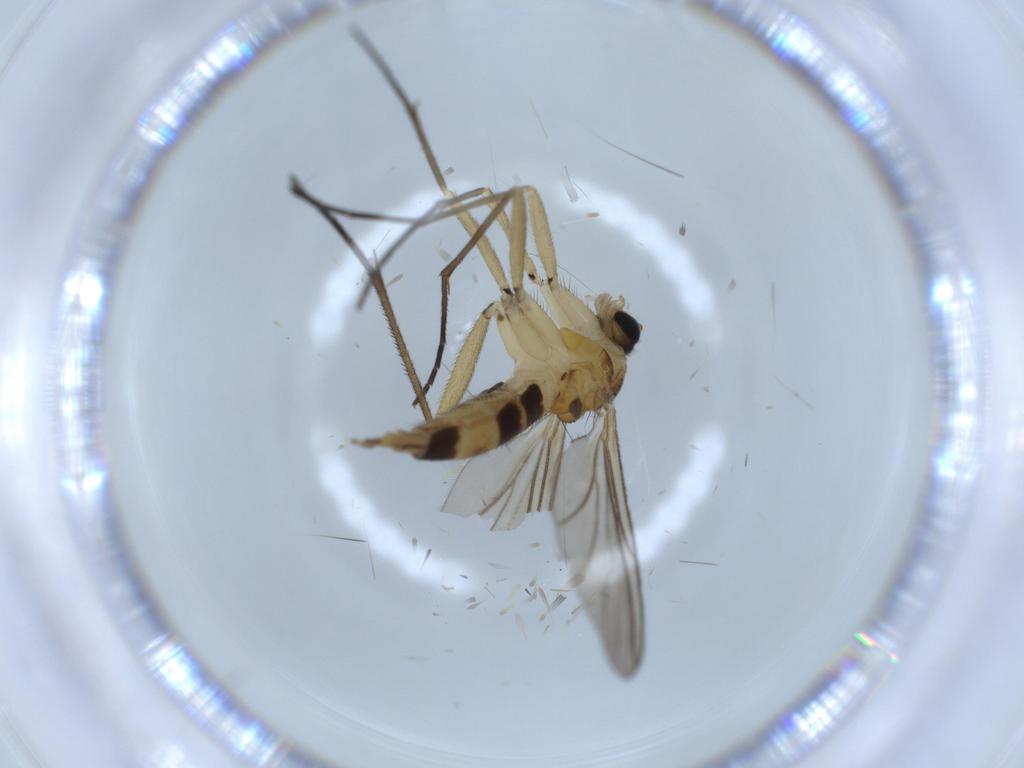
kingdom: Animalia
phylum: Arthropoda
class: Insecta
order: Diptera
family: Sciaridae
